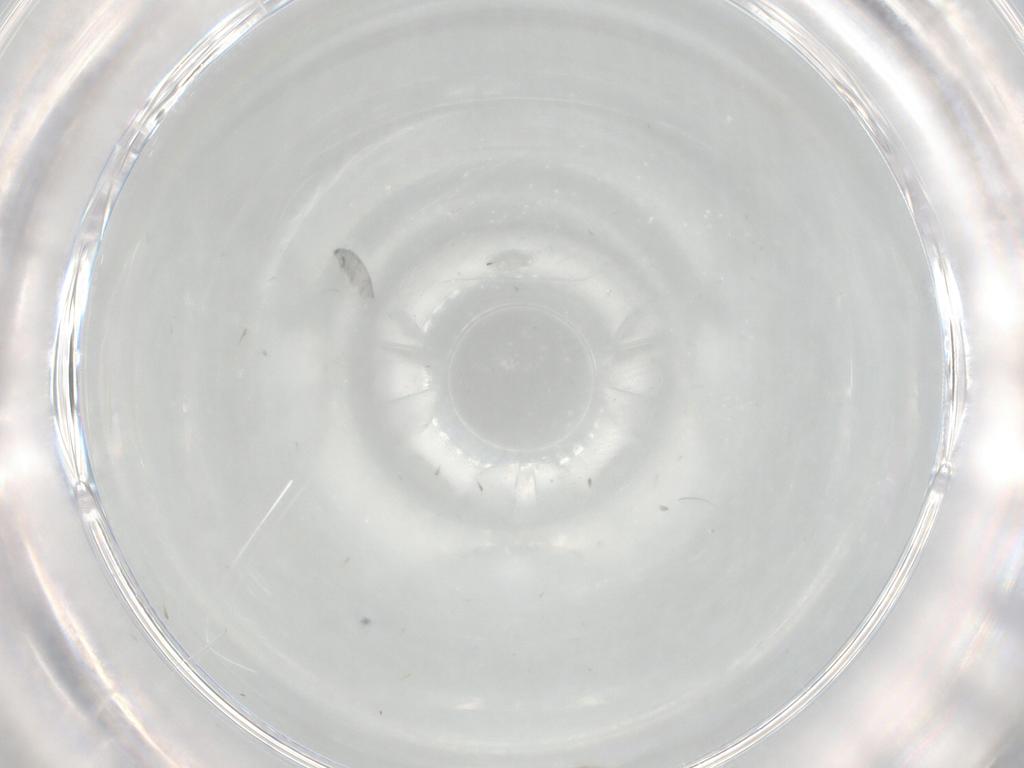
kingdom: Animalia
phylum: Arthropoda
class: Insecta
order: Diptera
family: Chironomidae
